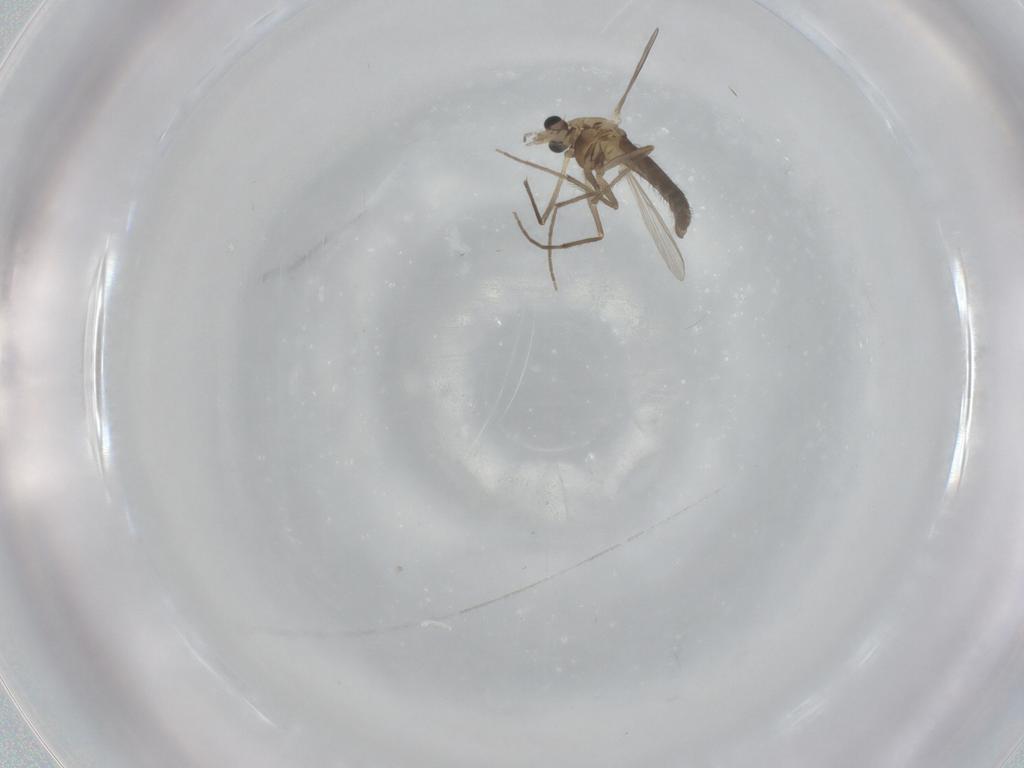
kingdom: Animalia
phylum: Arthropoda
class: Insecta
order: Diptera
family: Chironomidae
